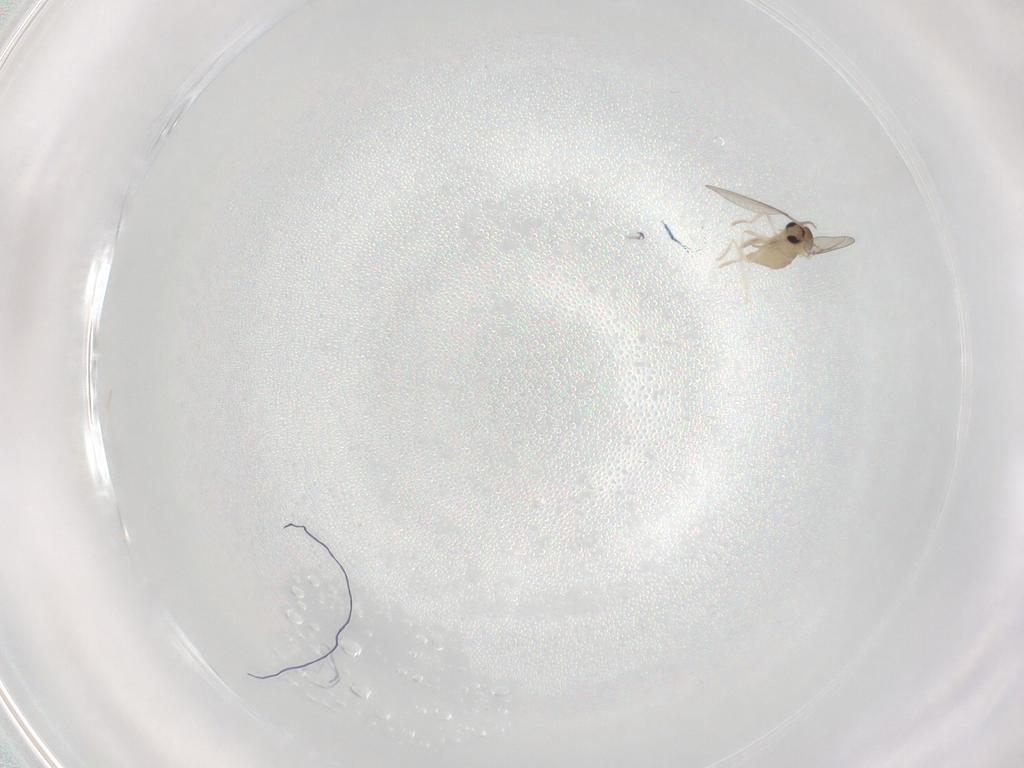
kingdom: Animalia
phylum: Arthropoda
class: Insecta
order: Diptera
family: Cecidomyiidae
